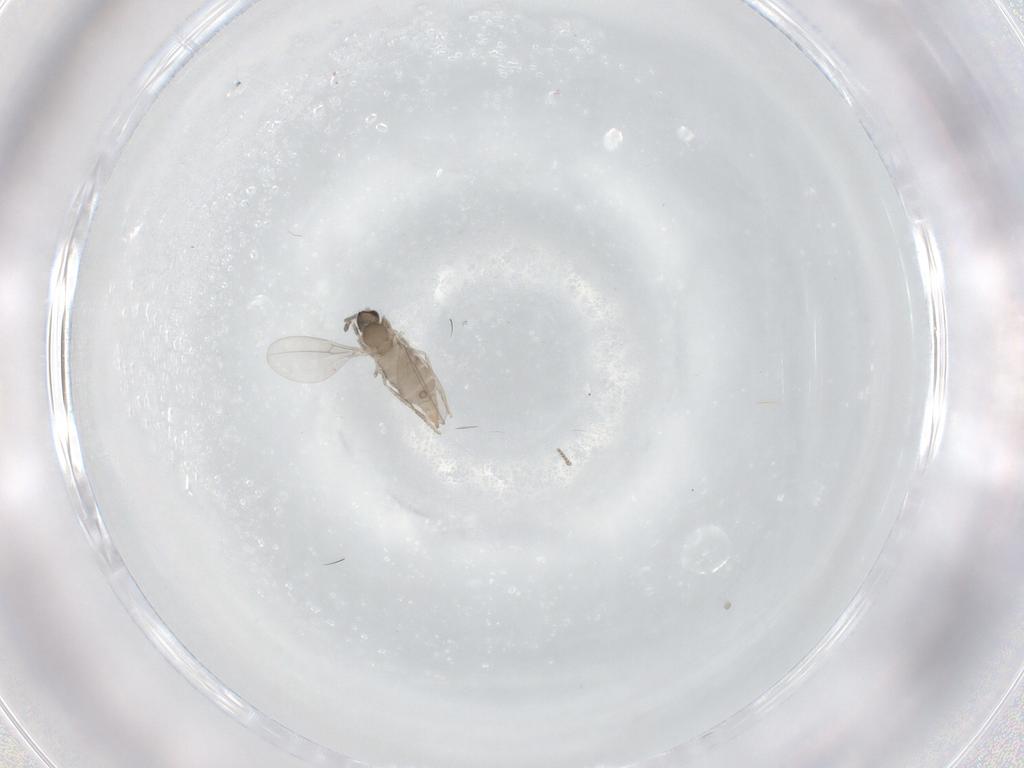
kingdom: Animalia
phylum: Arthropoda
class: Insecta
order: Diptera
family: Cecidomyiidae
